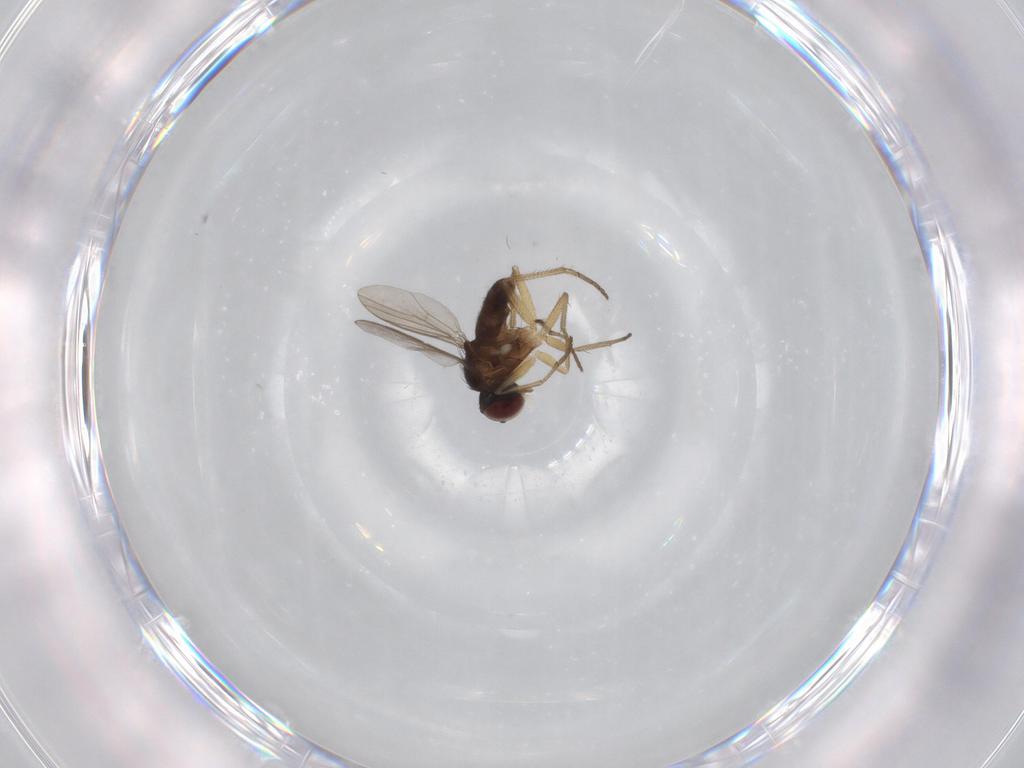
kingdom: Animalia
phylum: Arthropoda
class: Insecta
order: Diptera
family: Dolichopodidae
